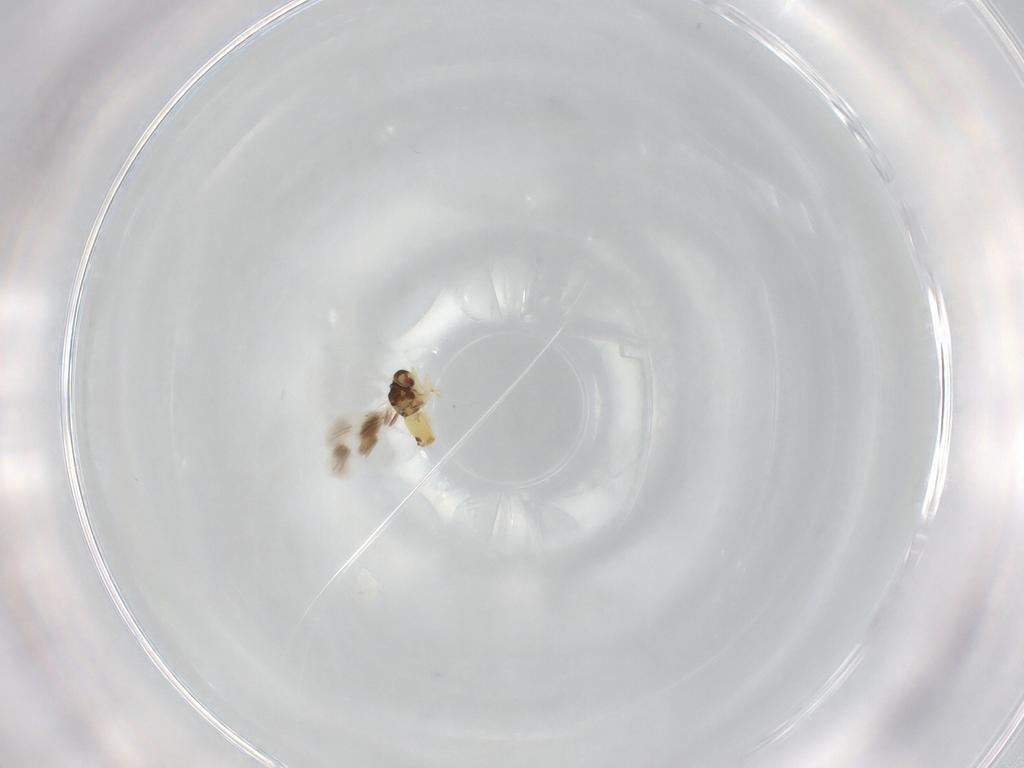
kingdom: Animalia
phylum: Arthropoda
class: Insecta
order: Hemiptera
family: Aleyrodidae
